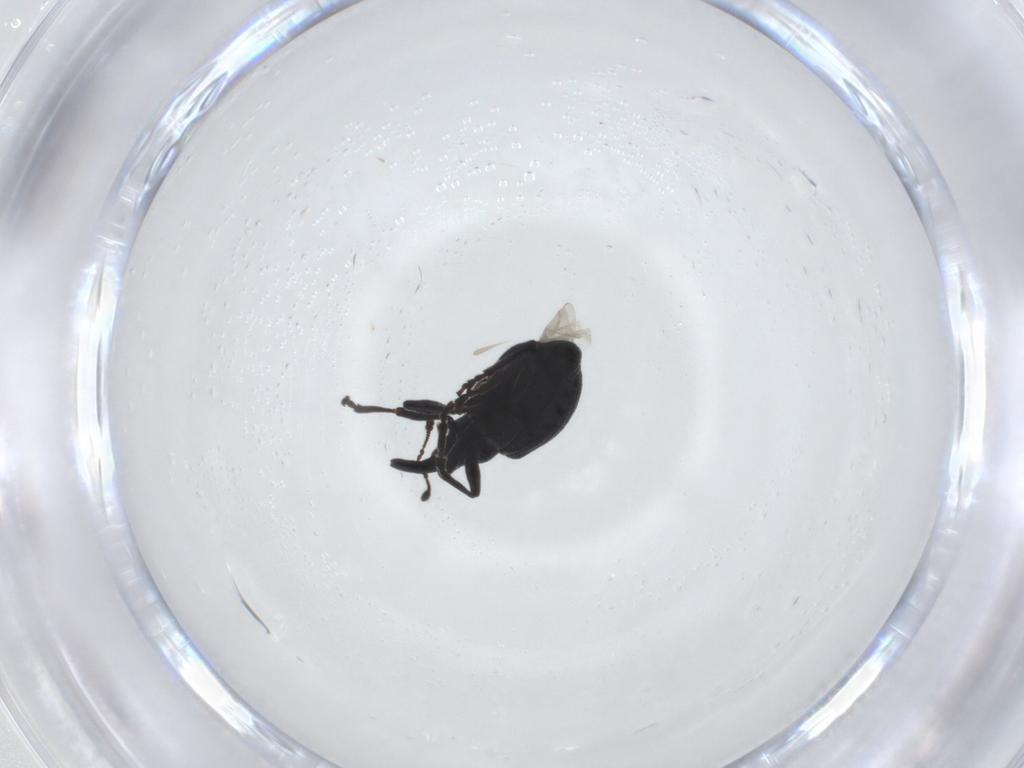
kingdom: Animalia
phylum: Arthropoda
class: Insecta
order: Coleoptera
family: Brentidae
